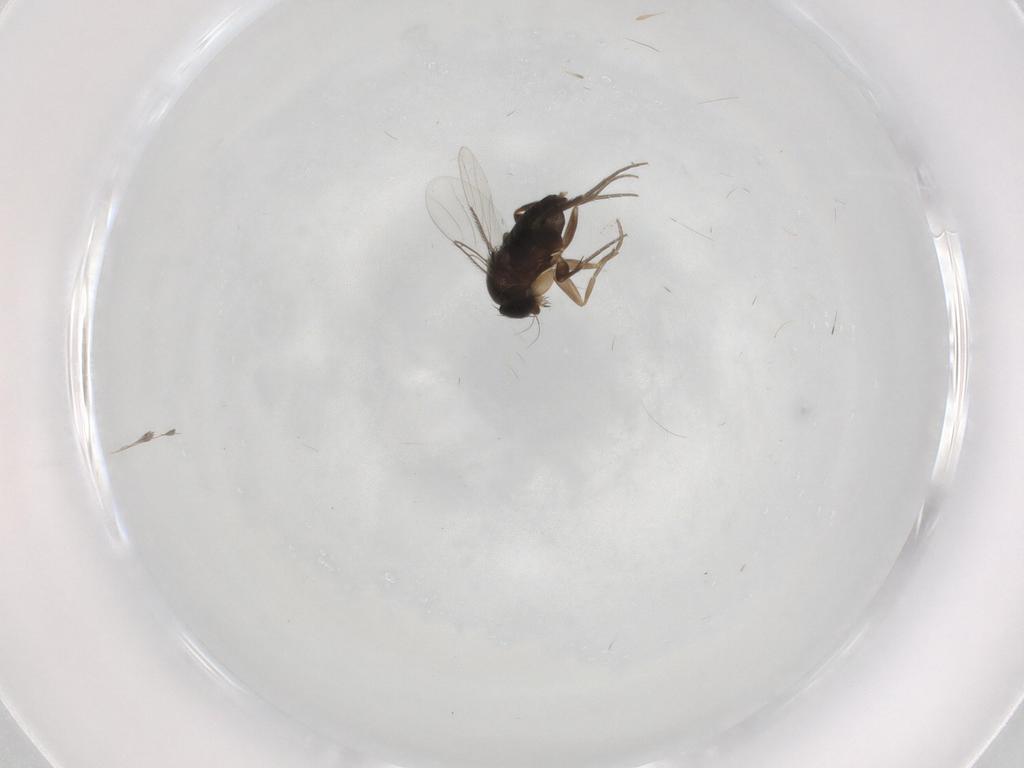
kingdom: Animalia
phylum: Arthropoda
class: Insecta
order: Diptera
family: Phoridae
